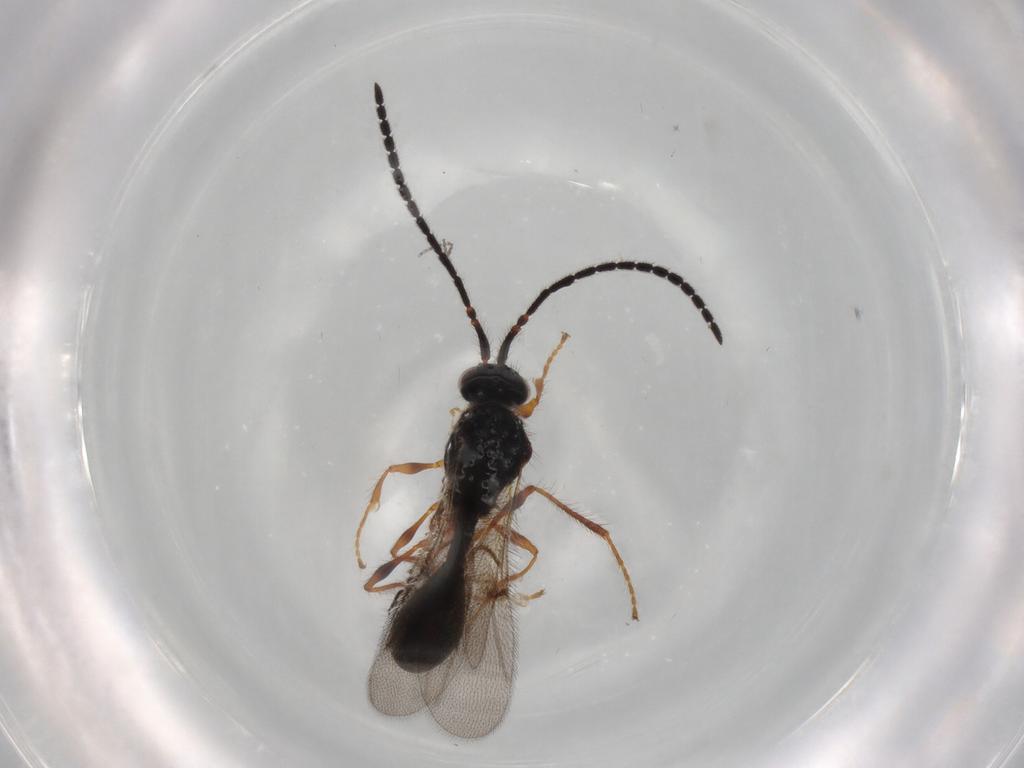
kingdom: Animalia
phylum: Arthropoda
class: Insecta
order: Hymenoptera
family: Diapriidae
